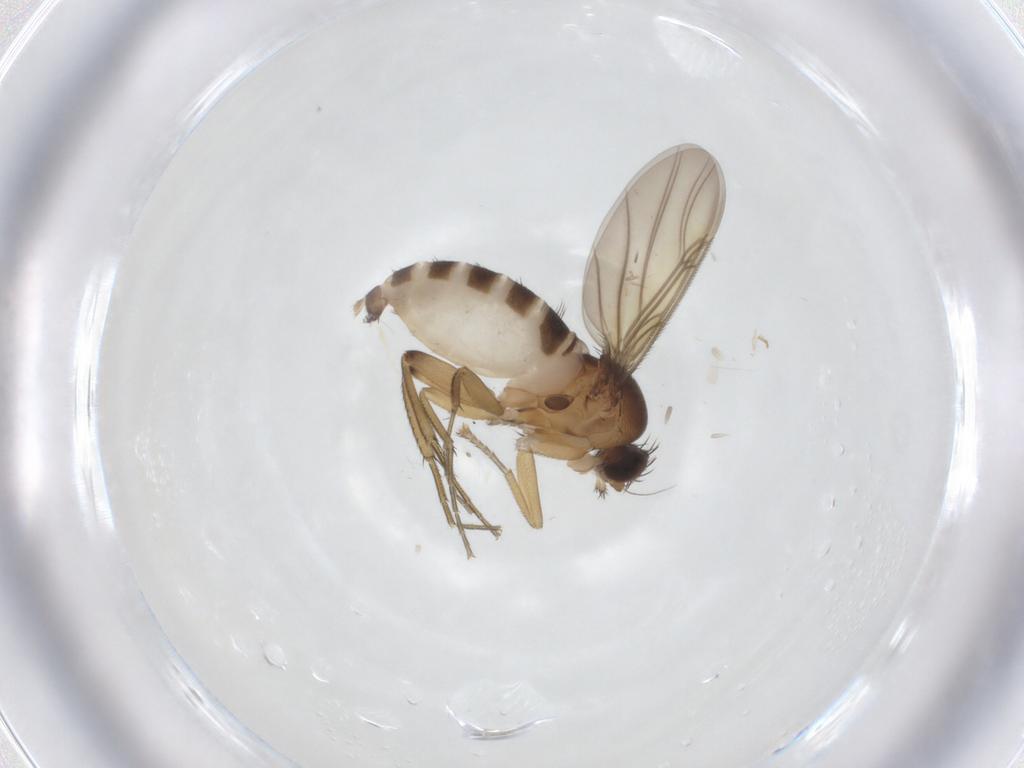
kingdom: Animalia
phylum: Arthropoda
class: Insecta
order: Diptera
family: Phoridae
